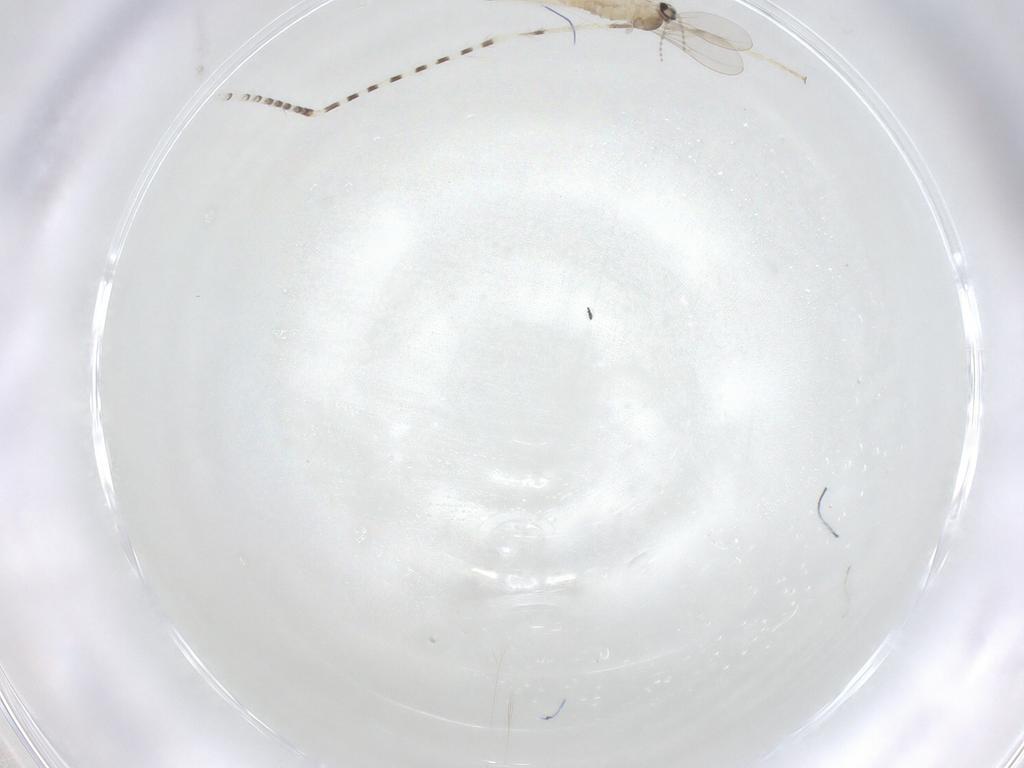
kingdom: Animalia
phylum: Arthropoda
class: Insecta
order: Diptera
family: Cecidomyiidae
